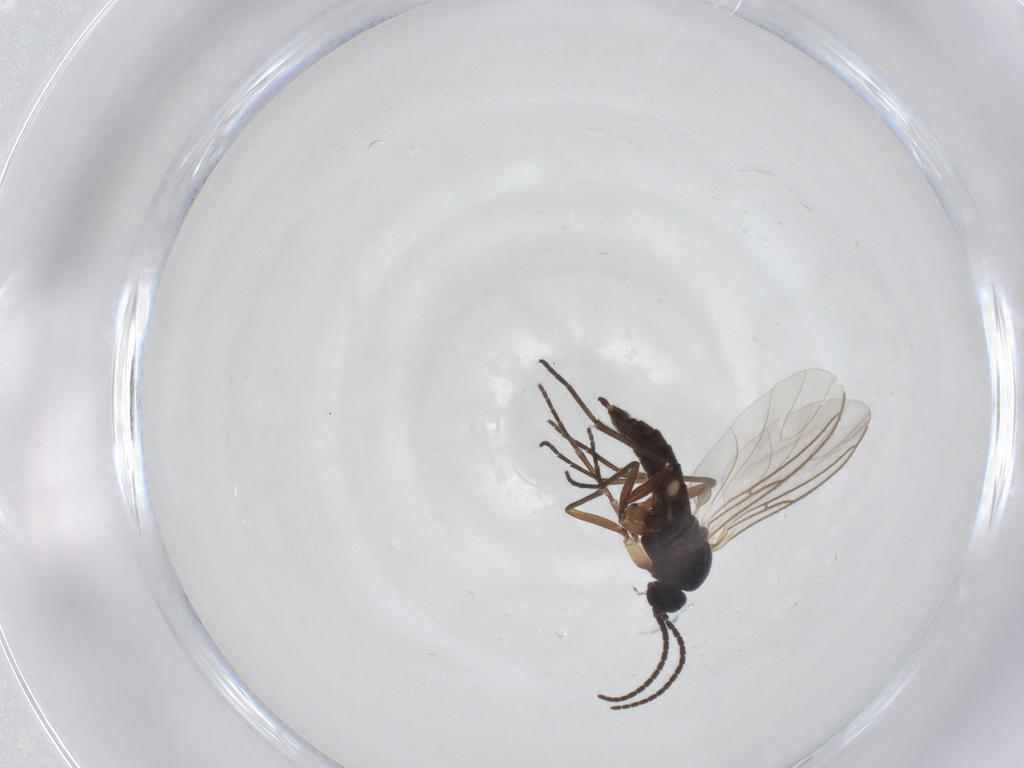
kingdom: Animalia
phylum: Arthropoda
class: Insecta
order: Diptera
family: Sciaridae
